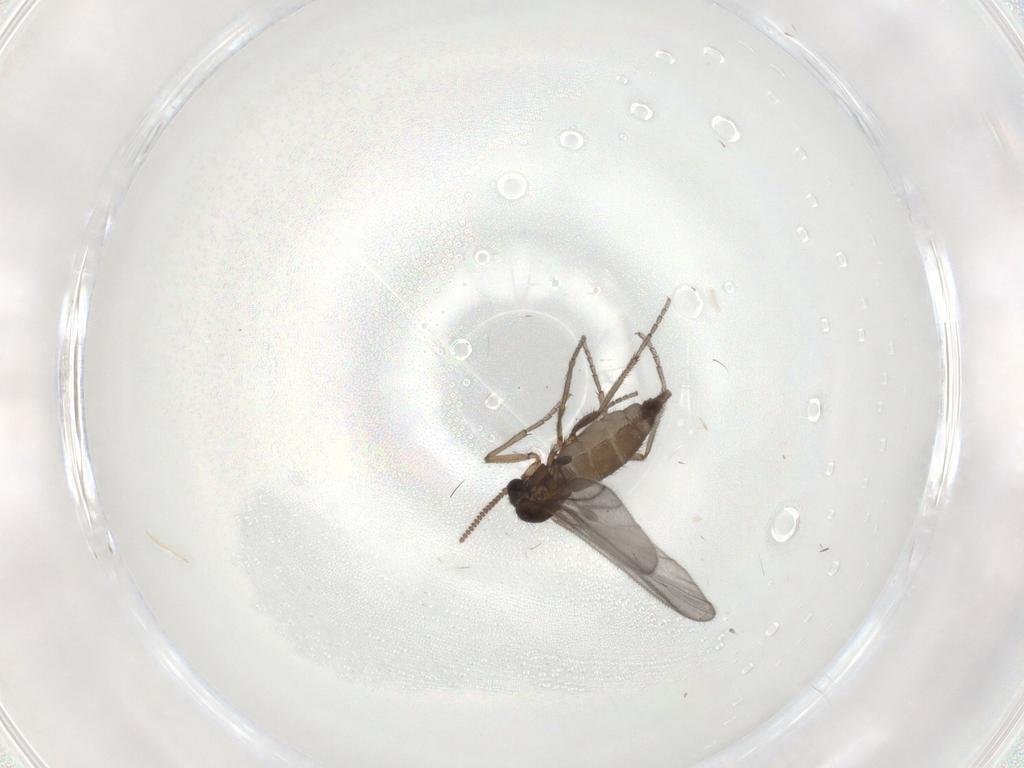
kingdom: Animalia
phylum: Arthropoda
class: Insecta
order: Diptera
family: Sciaridae
